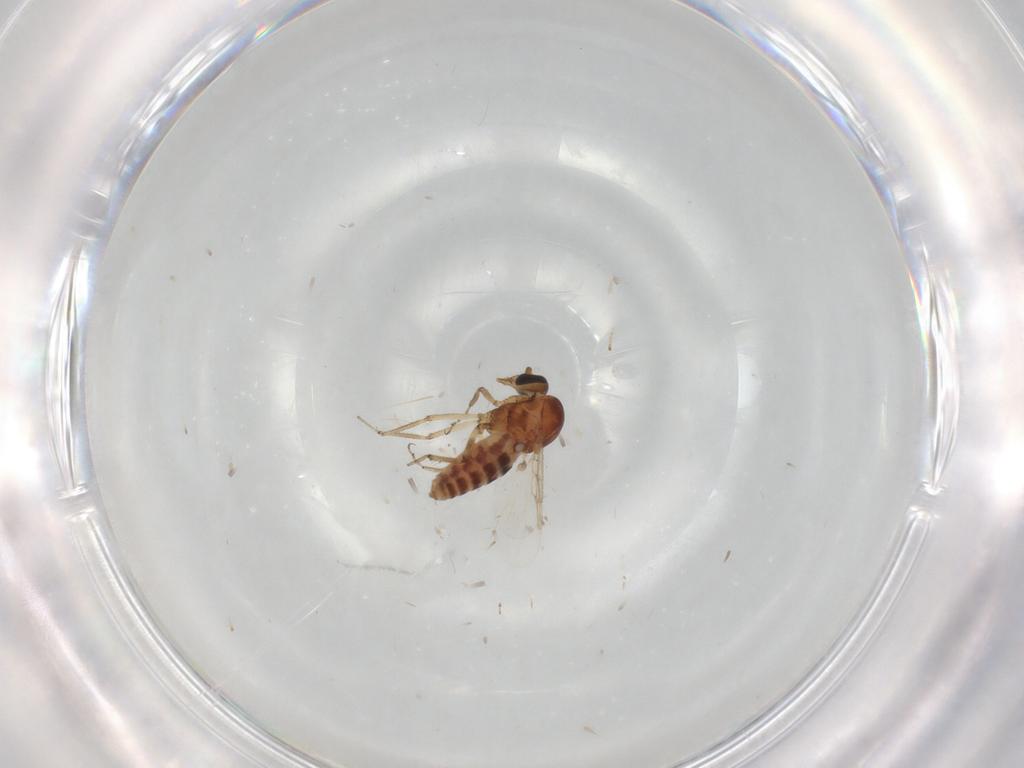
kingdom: Animalia
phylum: Arthropoda
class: Insecta
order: Diptera
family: Ceratopogonidae
